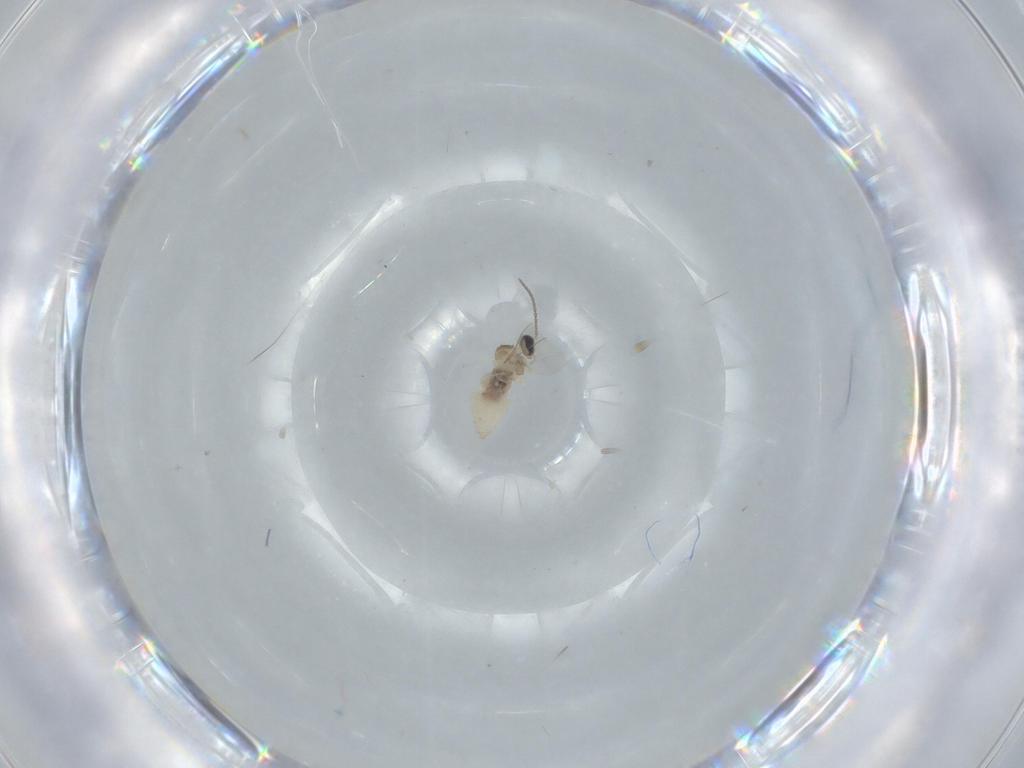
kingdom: Animalia
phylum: Arthropoda
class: Insecta
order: Diptera
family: Cecidomyiidae
